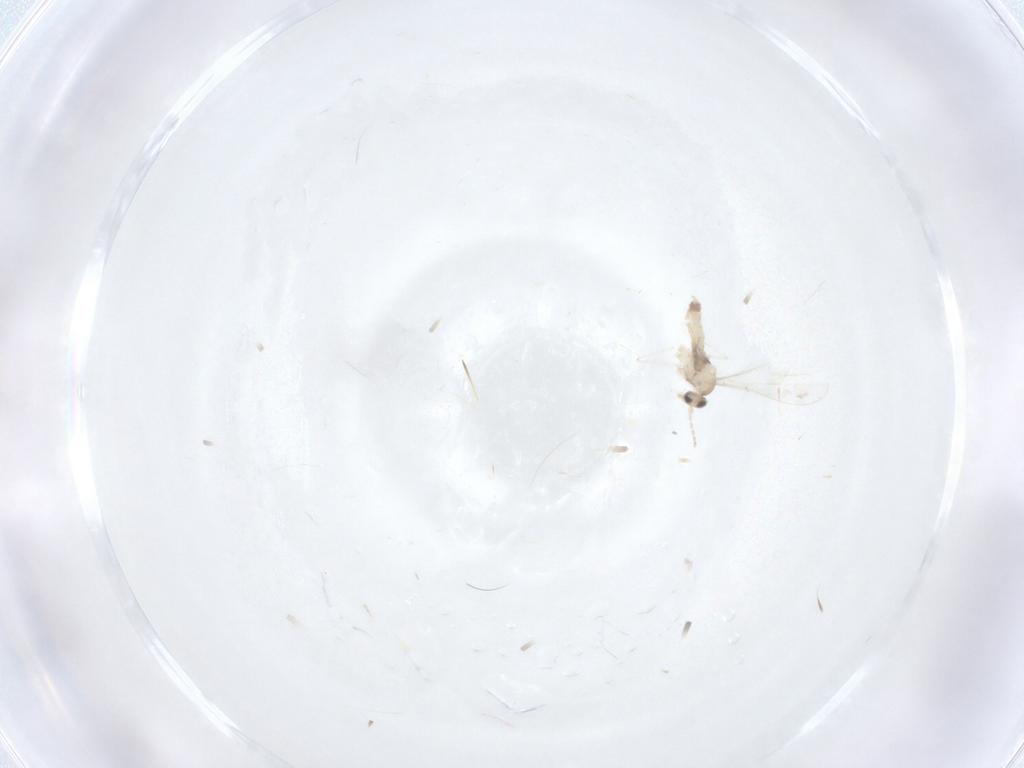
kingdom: Animalia
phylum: Arthropoda
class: Insecta
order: Diptera
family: Cecidomyiidae
